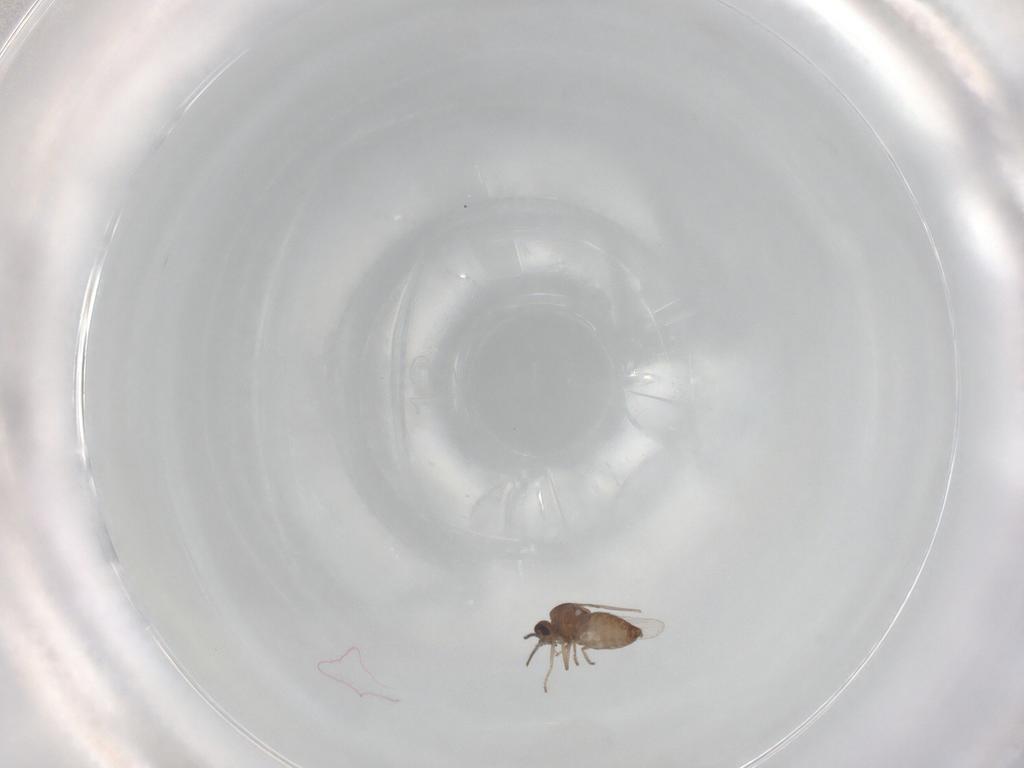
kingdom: Animalia
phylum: Arthropoda
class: Insecta
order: Diptera
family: Ceratopogonidae
